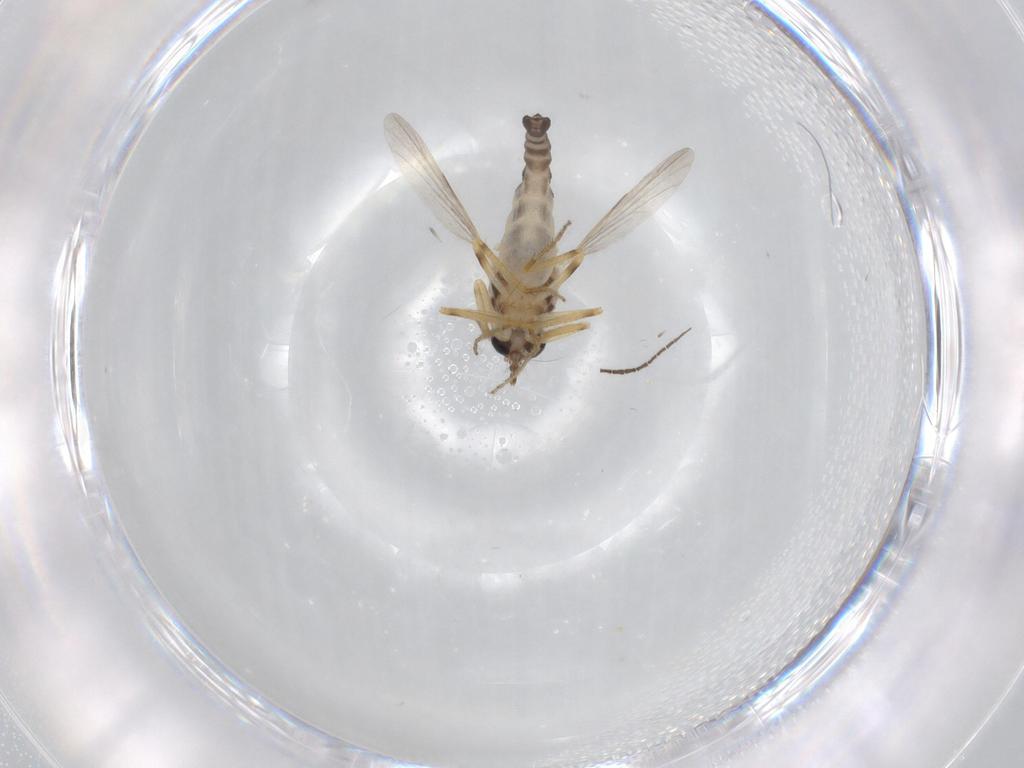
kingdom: Animalia
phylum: Arthropoda
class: Insecta
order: Diptera
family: Ceratopogonidae
